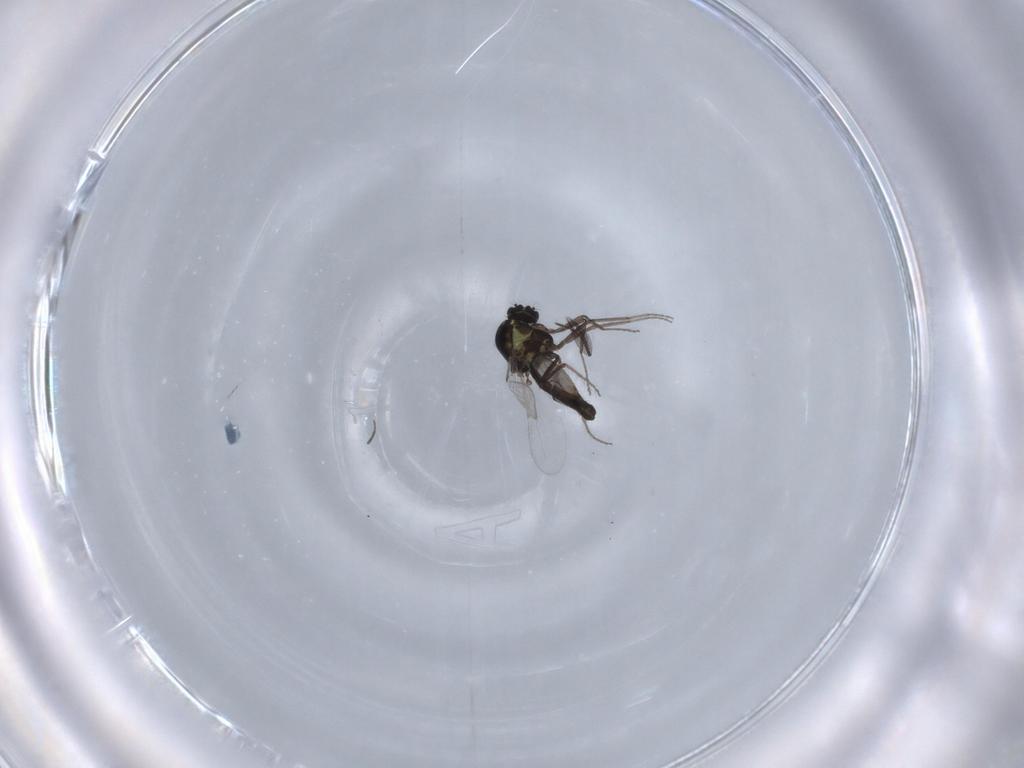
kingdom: Animalia
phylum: Arthropoda
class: Insecta
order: Diptera
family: Ceratopogonidae
